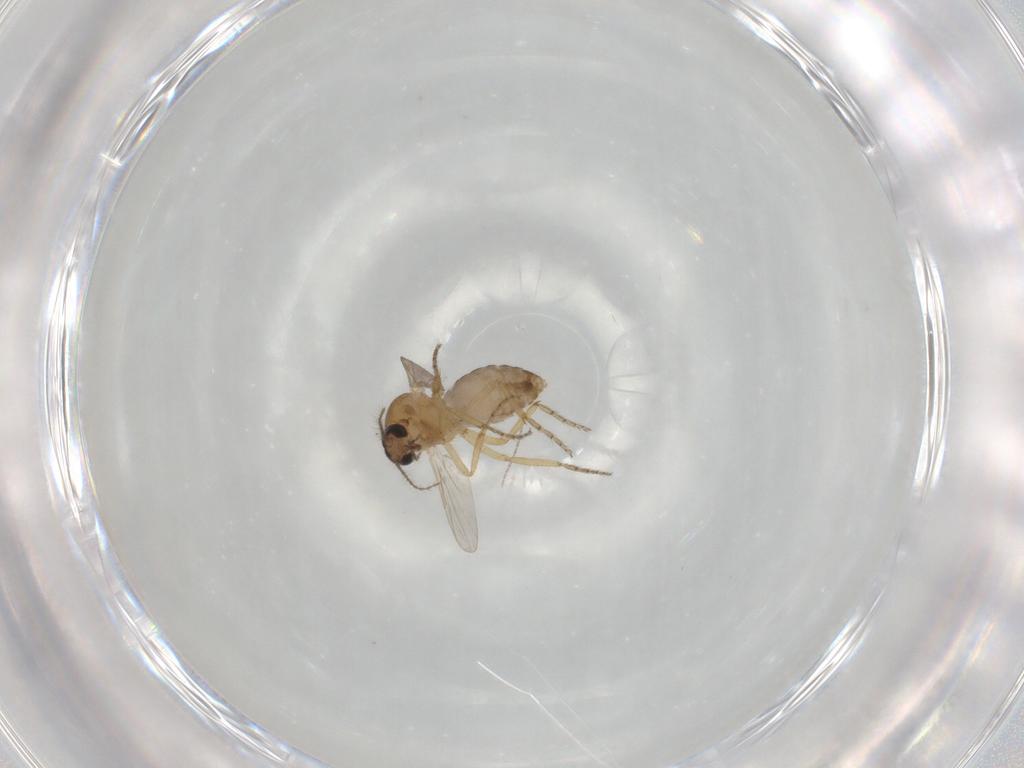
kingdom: Animalia
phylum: Arthropoda
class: Insecta
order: Diptera
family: Ceratopogonidae
